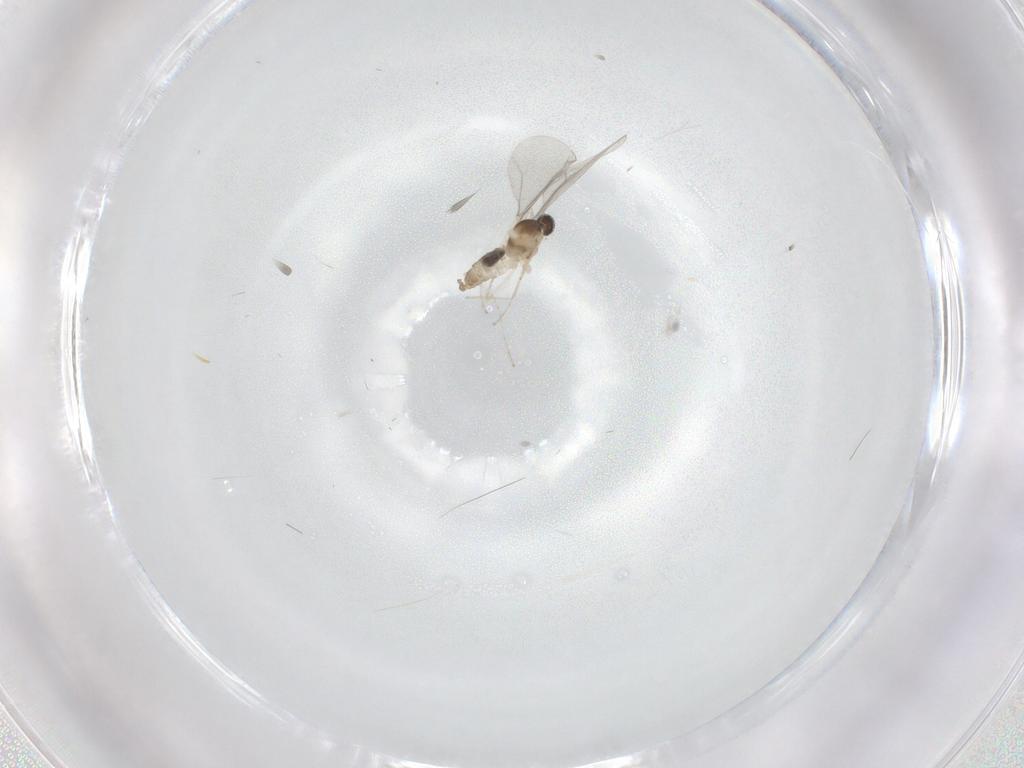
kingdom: Animalia
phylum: Arthropoda
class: Insecta
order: Diptera
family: Cecidomyiidae
